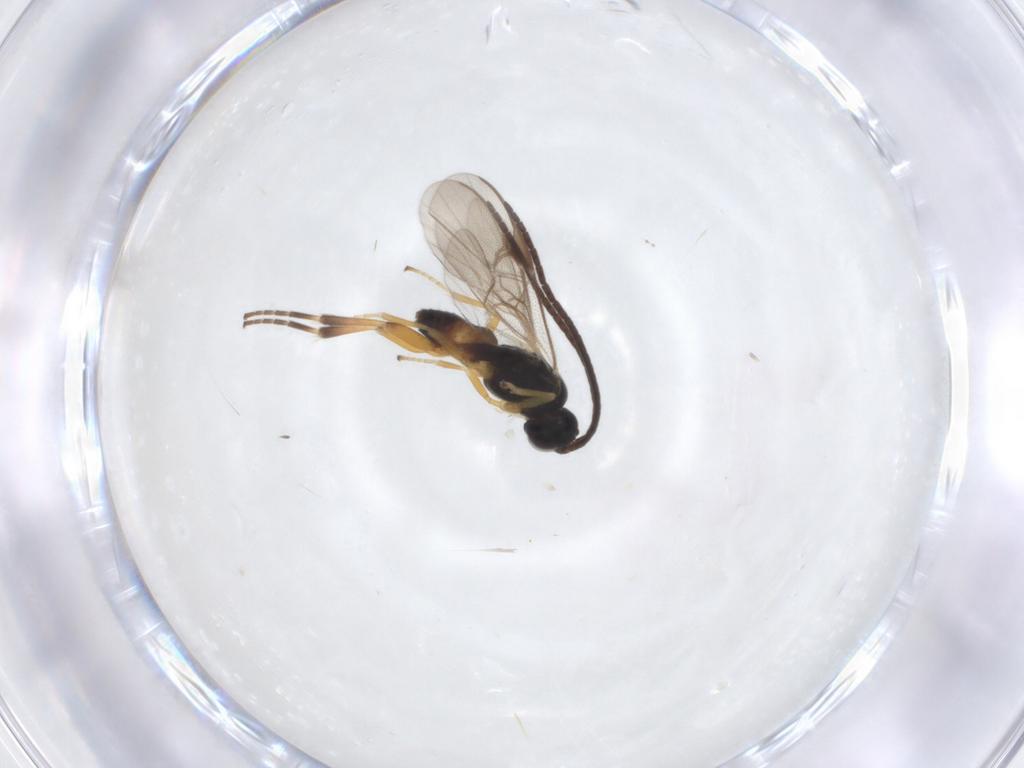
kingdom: Animalia
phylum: Arthropoda
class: Insecta
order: Hymenoptera
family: Braconidae
